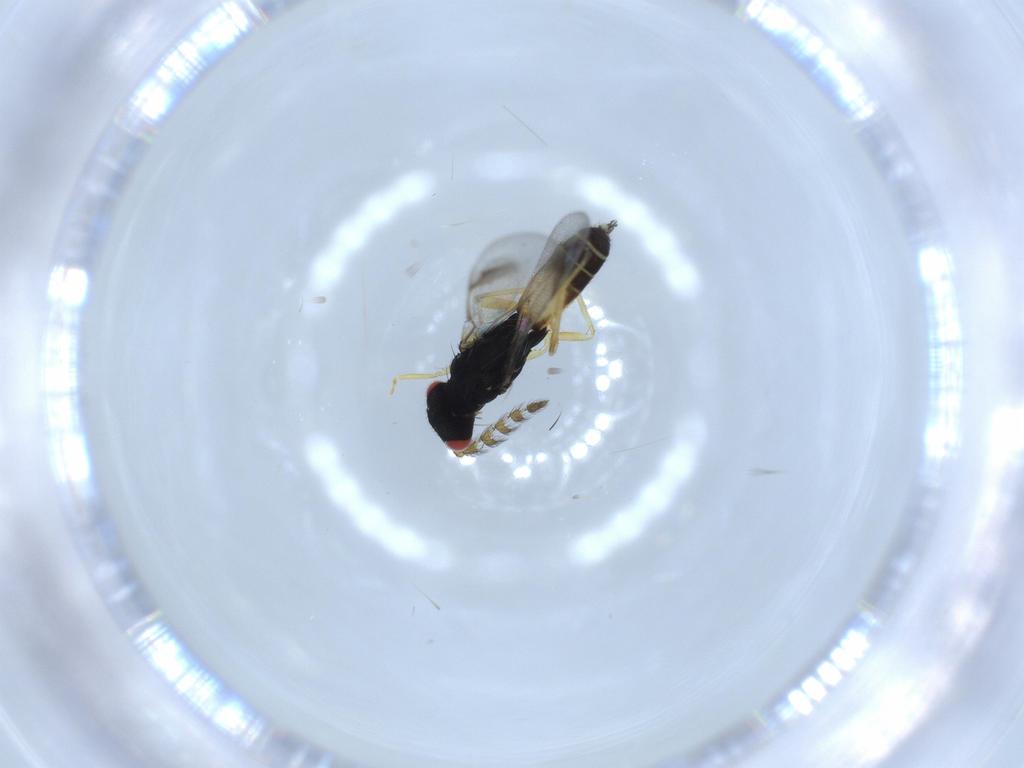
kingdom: Animalia
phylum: Arthropoda
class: Insecta
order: Hymenoptera
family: Eulophidae
